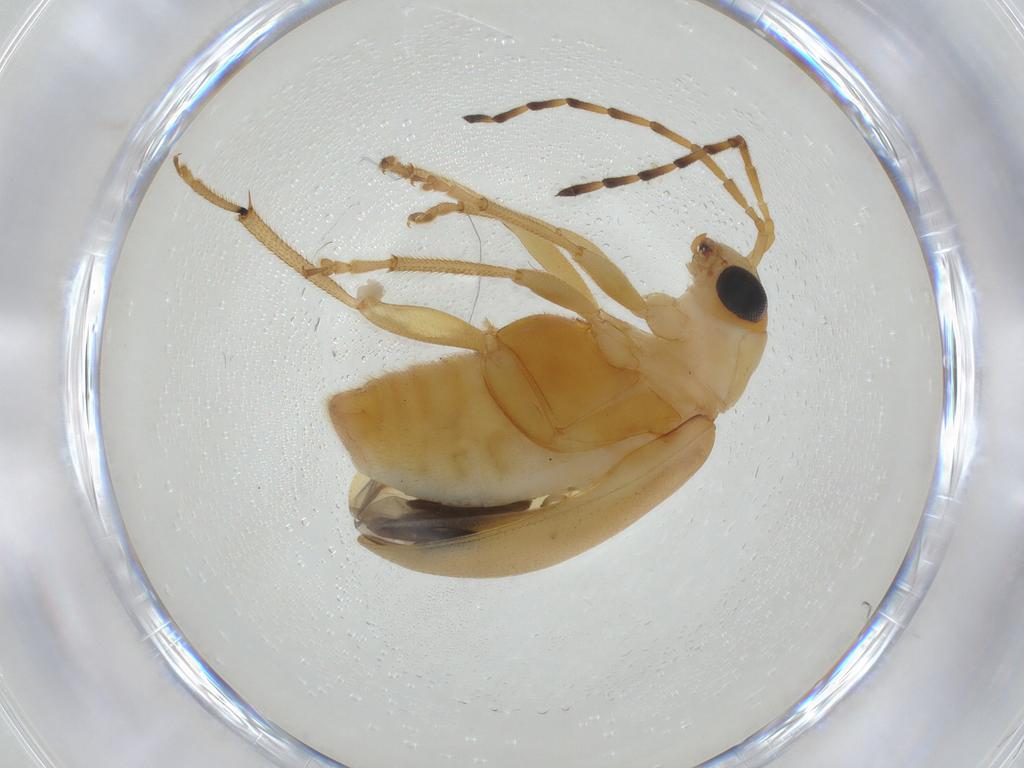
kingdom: Animalia
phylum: Arthropoda
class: Insecta
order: Coleoptera
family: Chrysomelidae
